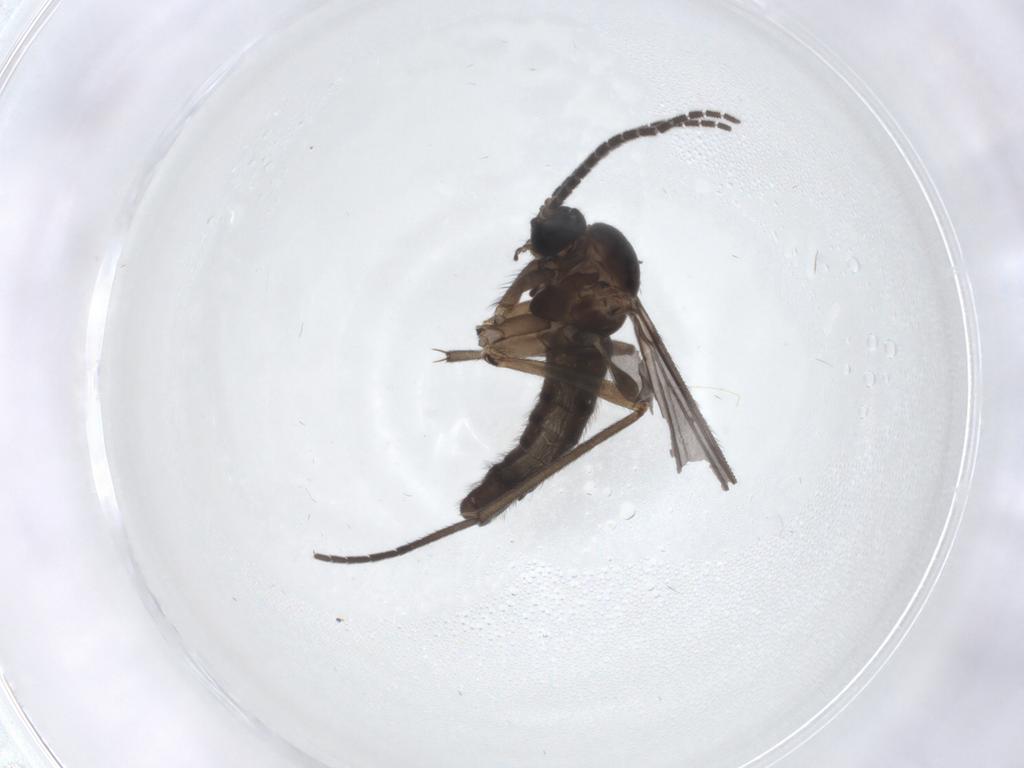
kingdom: Animalia
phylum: Arthropoda
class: Insecta
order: Diptera
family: Sciaridae
